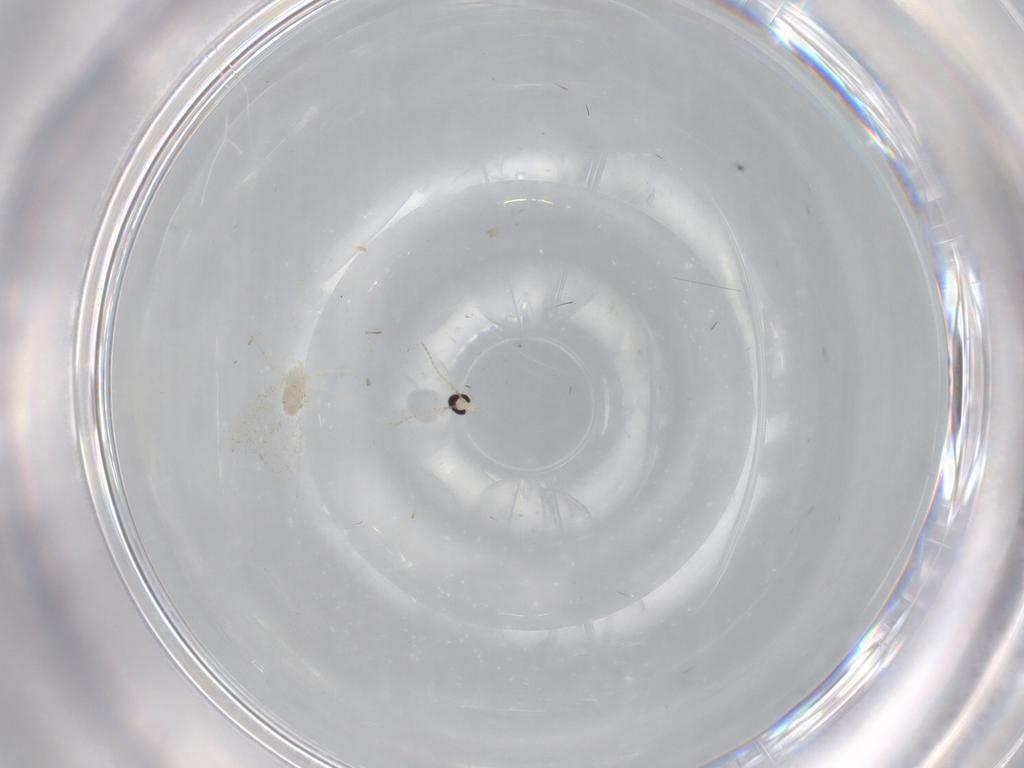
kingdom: Animalia
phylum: Arthropoda
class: Insecta
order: Diptera
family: Cecidomyiidae
